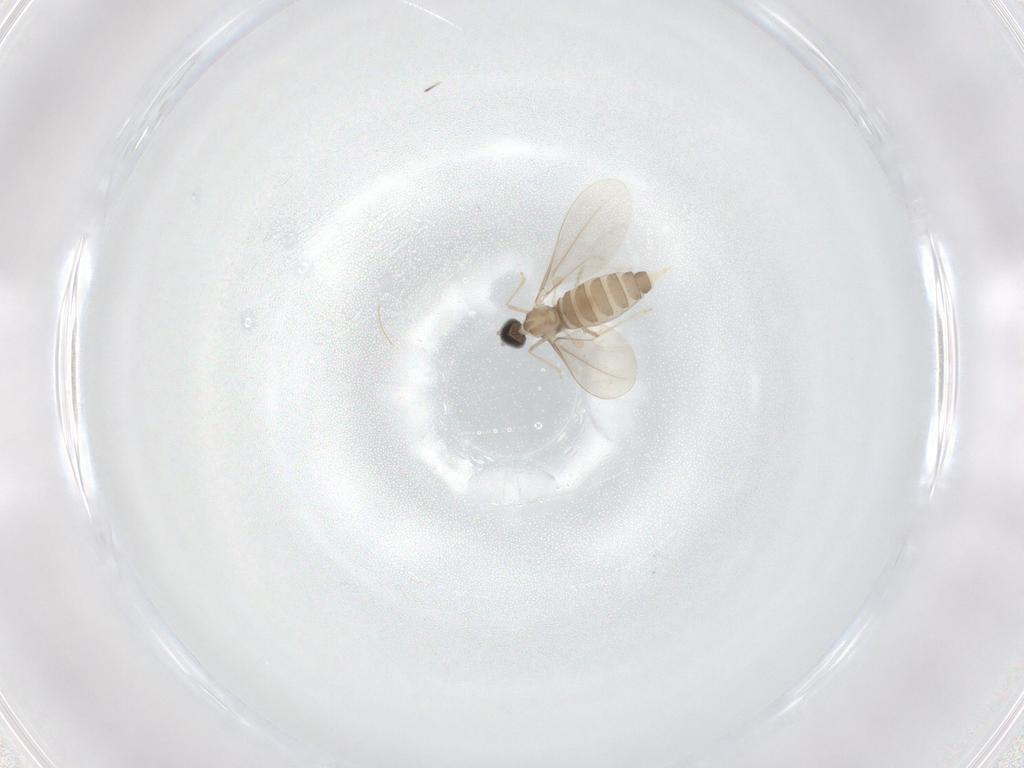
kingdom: Animalia
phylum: Arthropoda
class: Insecta
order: Diptera
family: Cecidomyiidae
